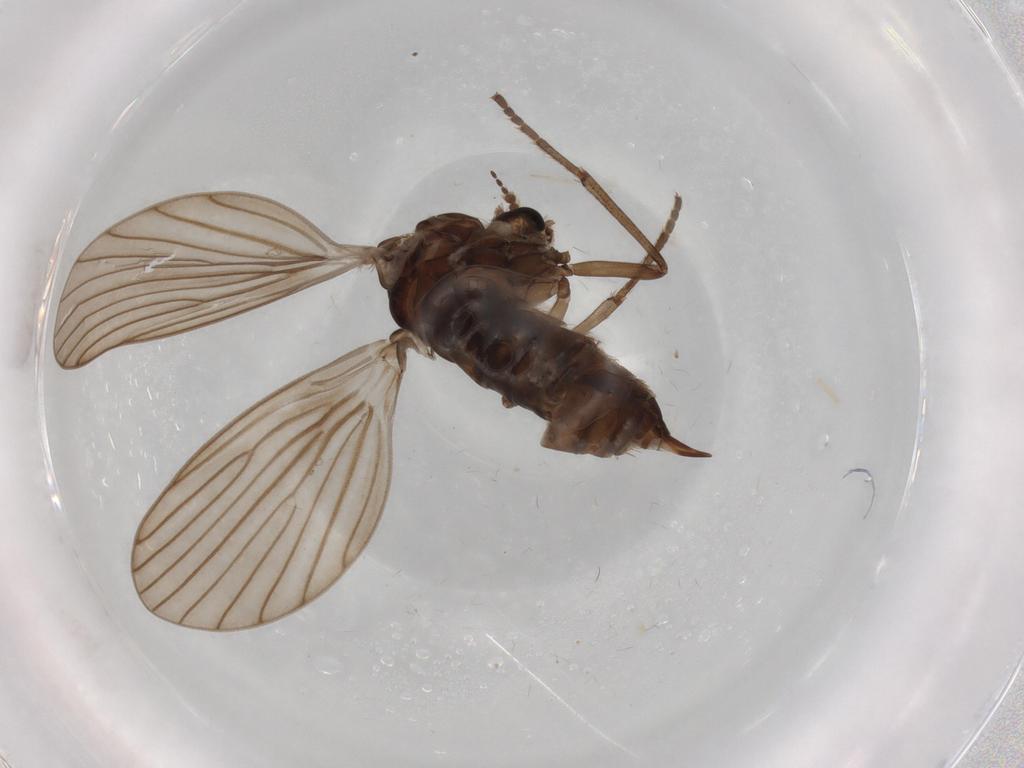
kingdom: Animalia
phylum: Arthropoda
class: Insecta
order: Diptera
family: Psychodidae
